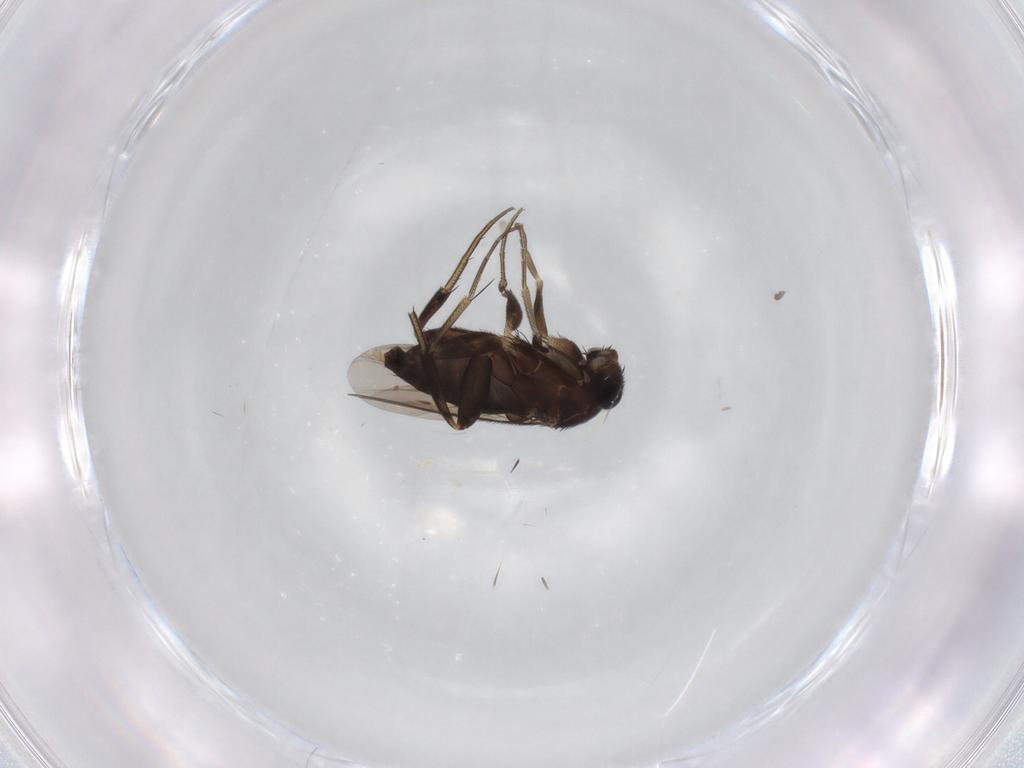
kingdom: Animalia
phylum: Arthropoda
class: Insecta
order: Diptera
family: Phoridae
